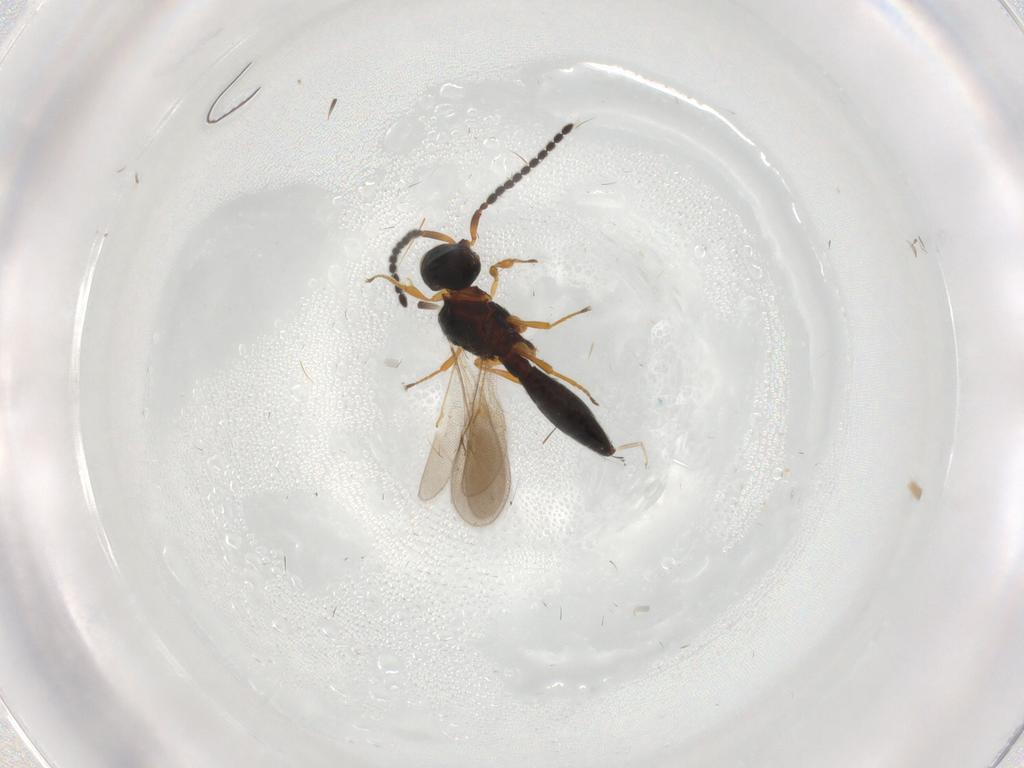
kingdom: Animalia
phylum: Arthropoda
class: Insecta
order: Hymenoptera
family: Scelionidae
